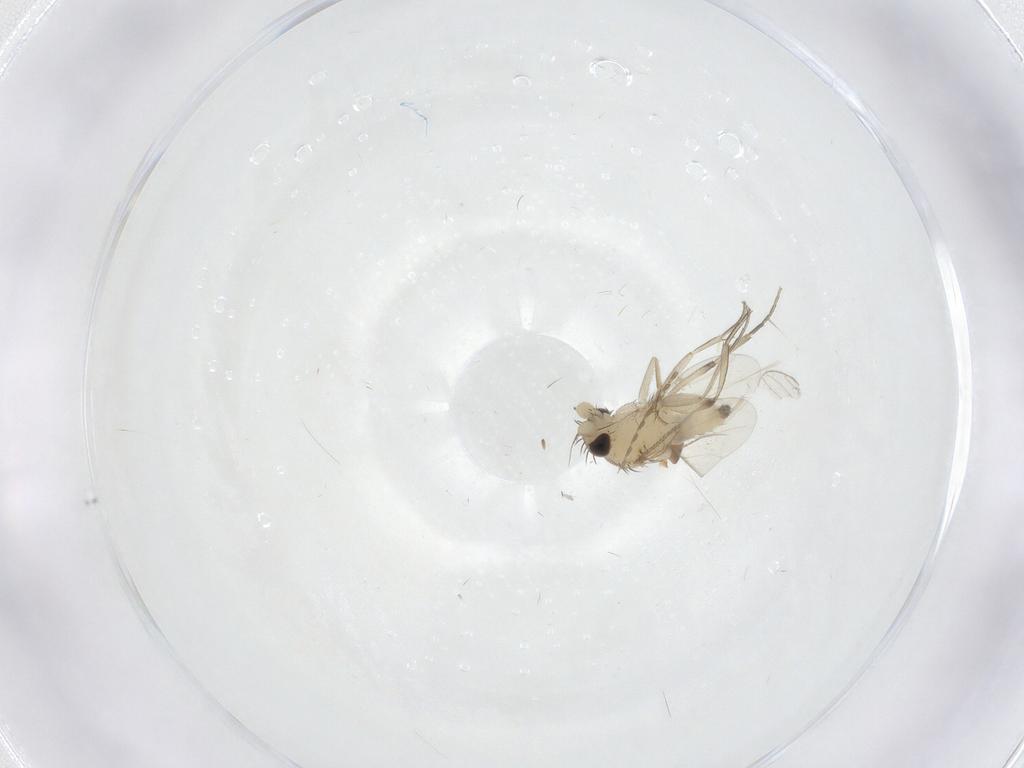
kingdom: Animalia
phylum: Arthropoda
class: Insecta
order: Diptera
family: Phoridae
